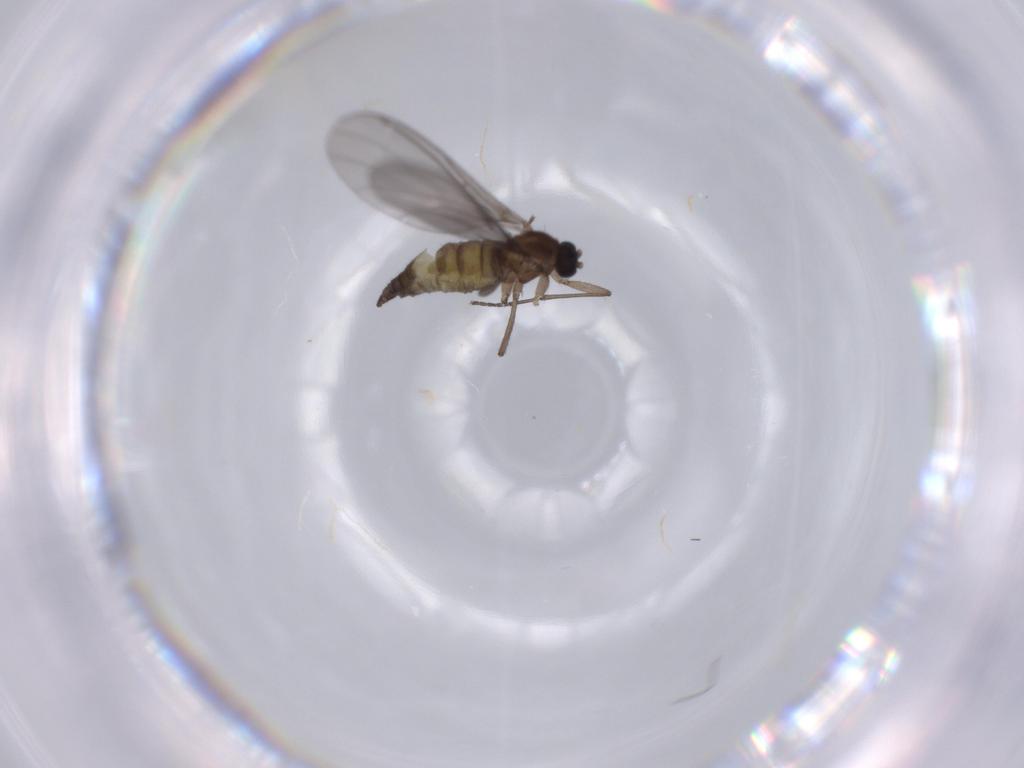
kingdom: Animalia
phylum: Arthropoda
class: Insecta
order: Diptera
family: Sciaridae
